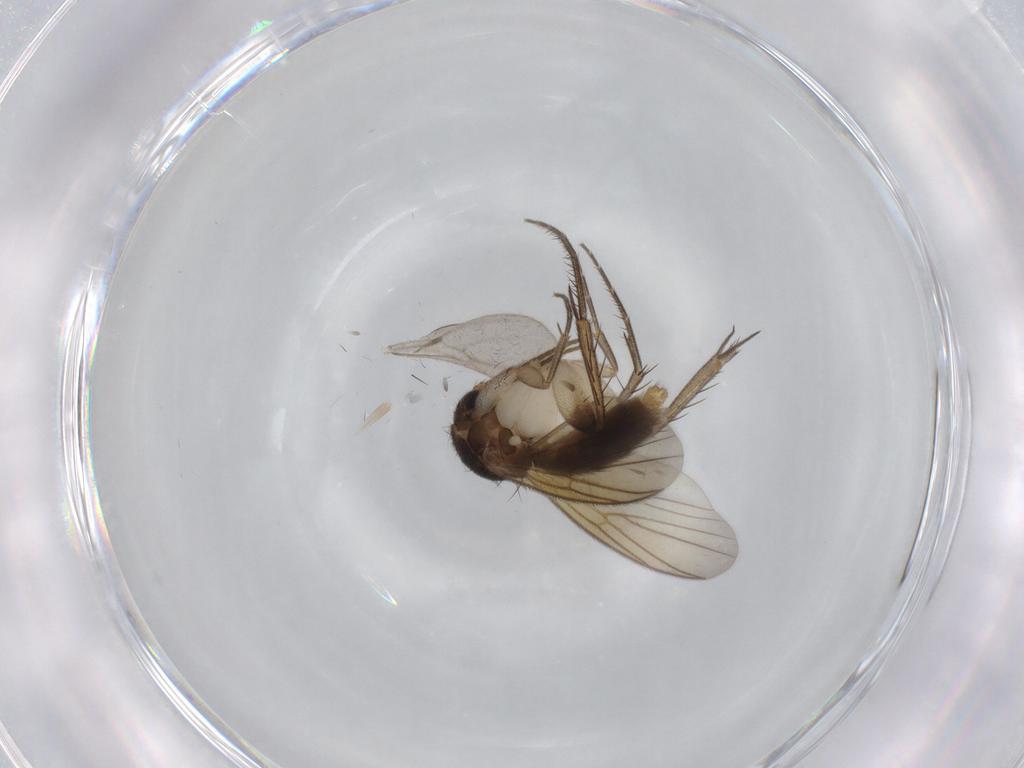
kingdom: Animalia
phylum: Arthropoda
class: Insecta
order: Diptera
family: Mycetophilidae
